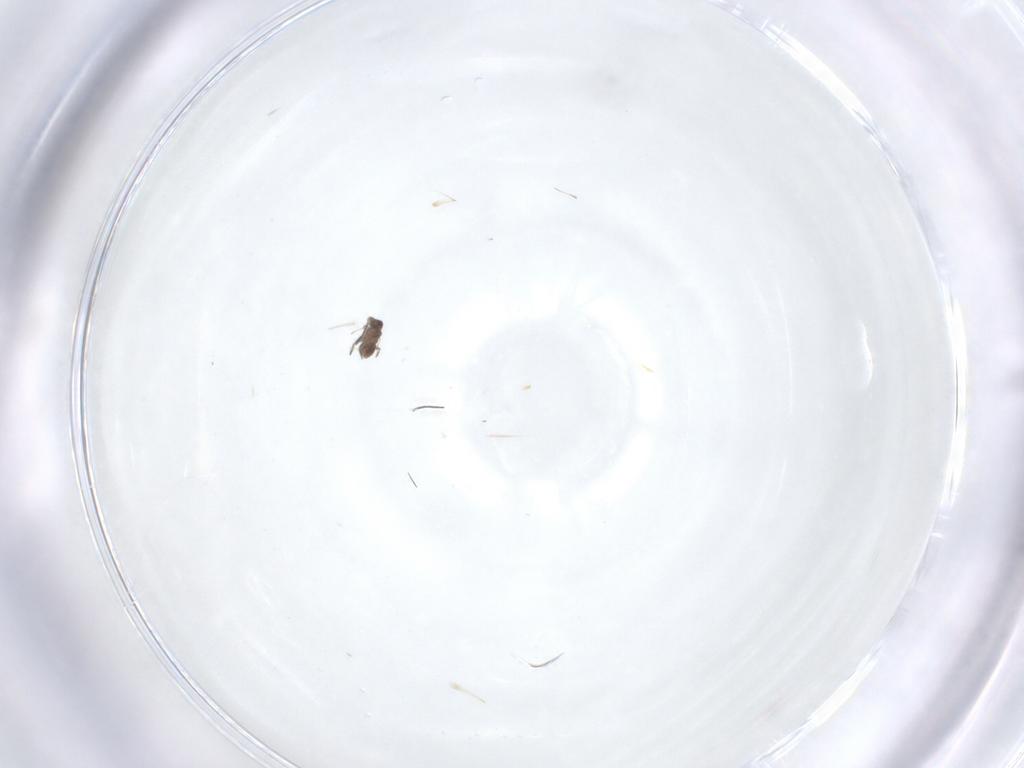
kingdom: Animalia
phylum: Arthropoda
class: Insecta
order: Hymenoptera
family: Mymaridae
